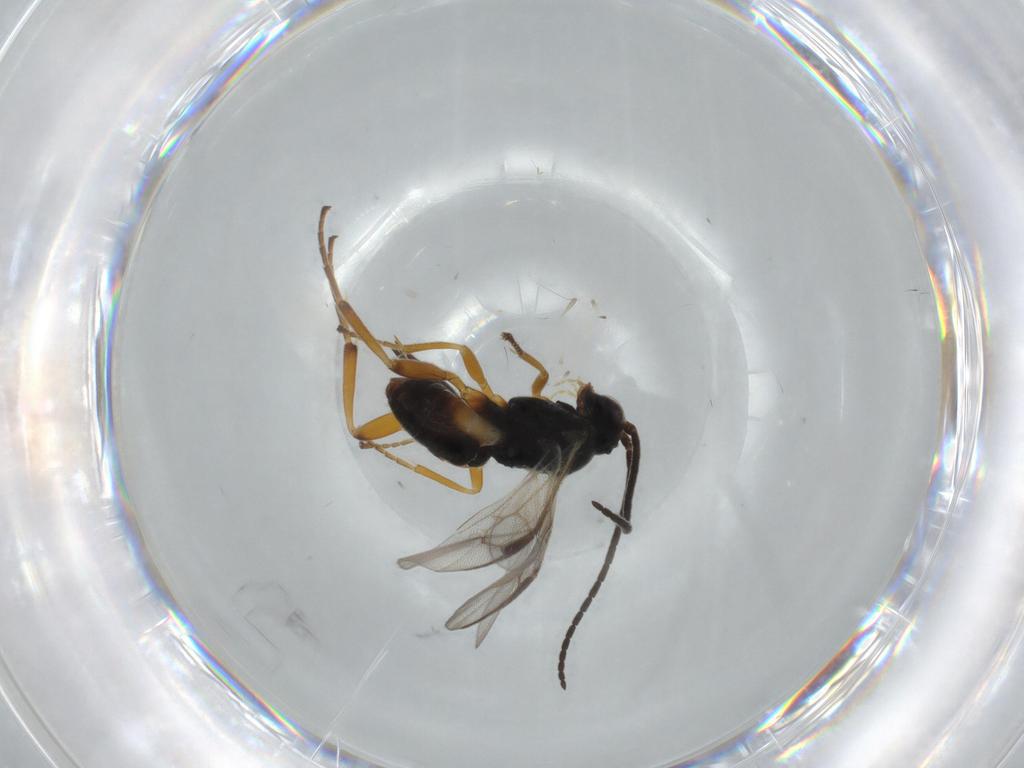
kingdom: Animalia
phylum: Arthropoda
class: Insecta
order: Hymenoptera
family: Braconidae
